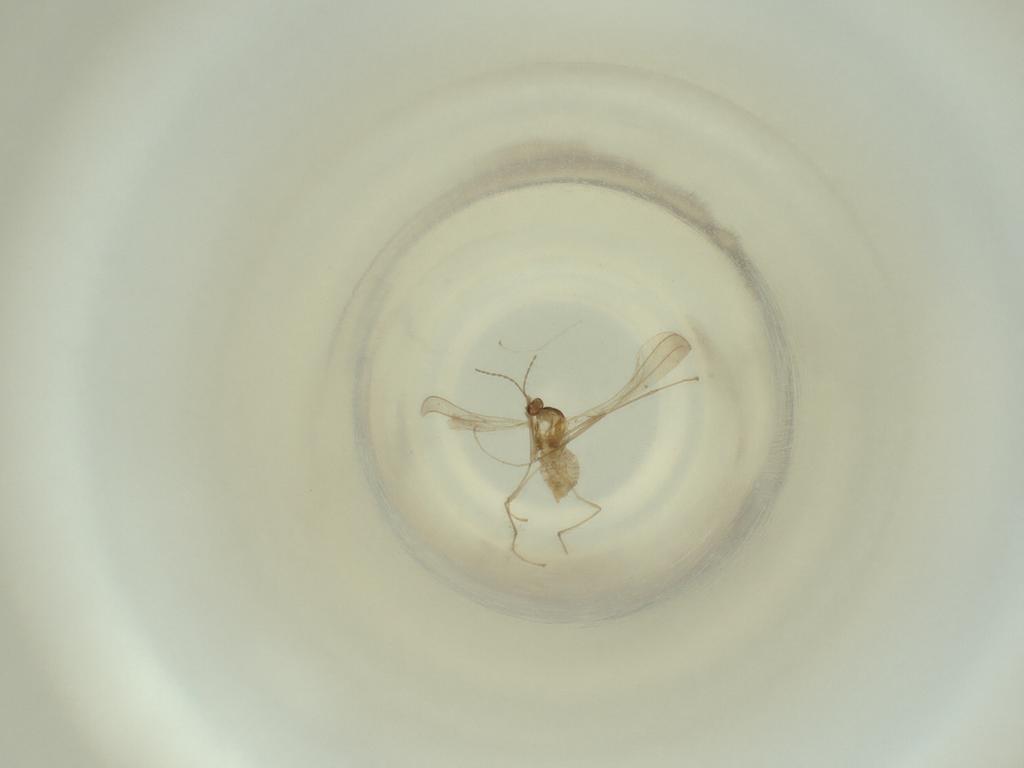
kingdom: Animalia
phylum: Arthropoda
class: Insecta
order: Diptera
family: Cecidomyiidae
